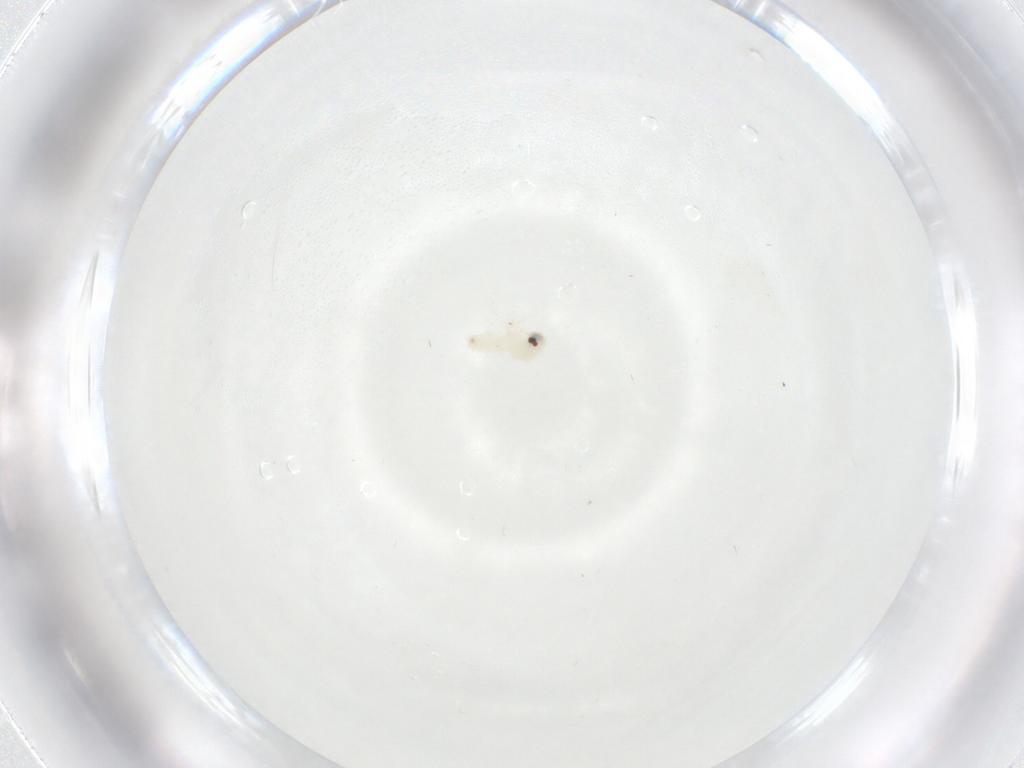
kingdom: Animalia
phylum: Arthropoda
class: Insecta
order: Hemiptera
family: Aleyrodidae
